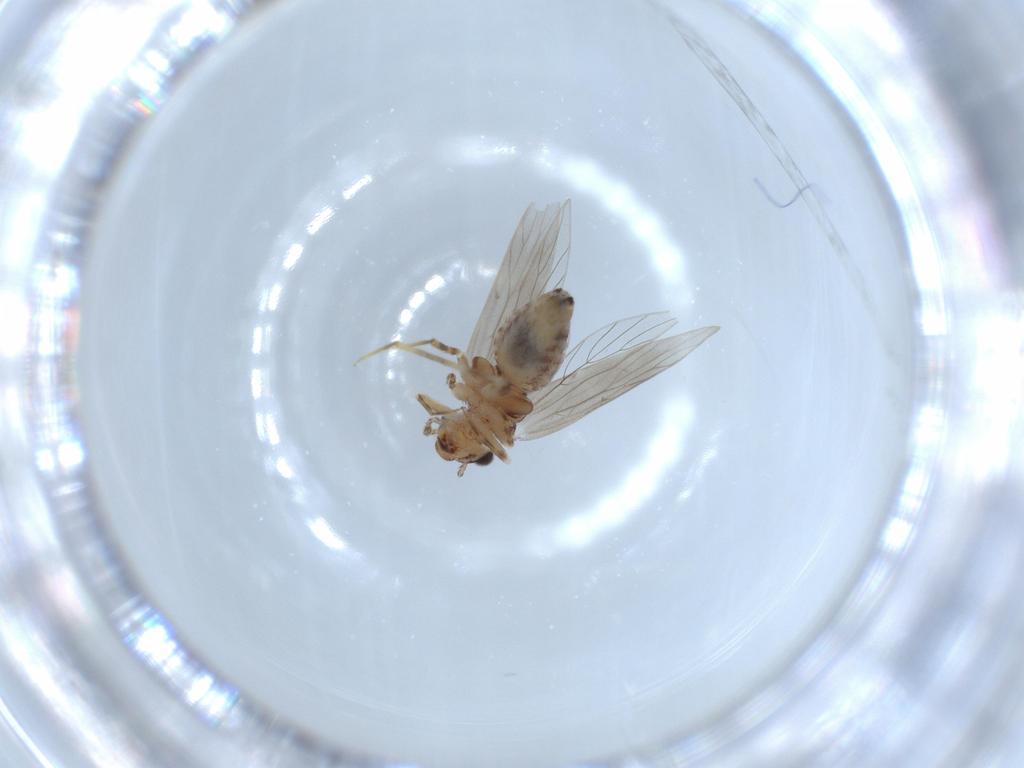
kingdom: Animalia
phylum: Arthropoda
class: Insecta
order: Psocodea
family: Lepidopsocidae
